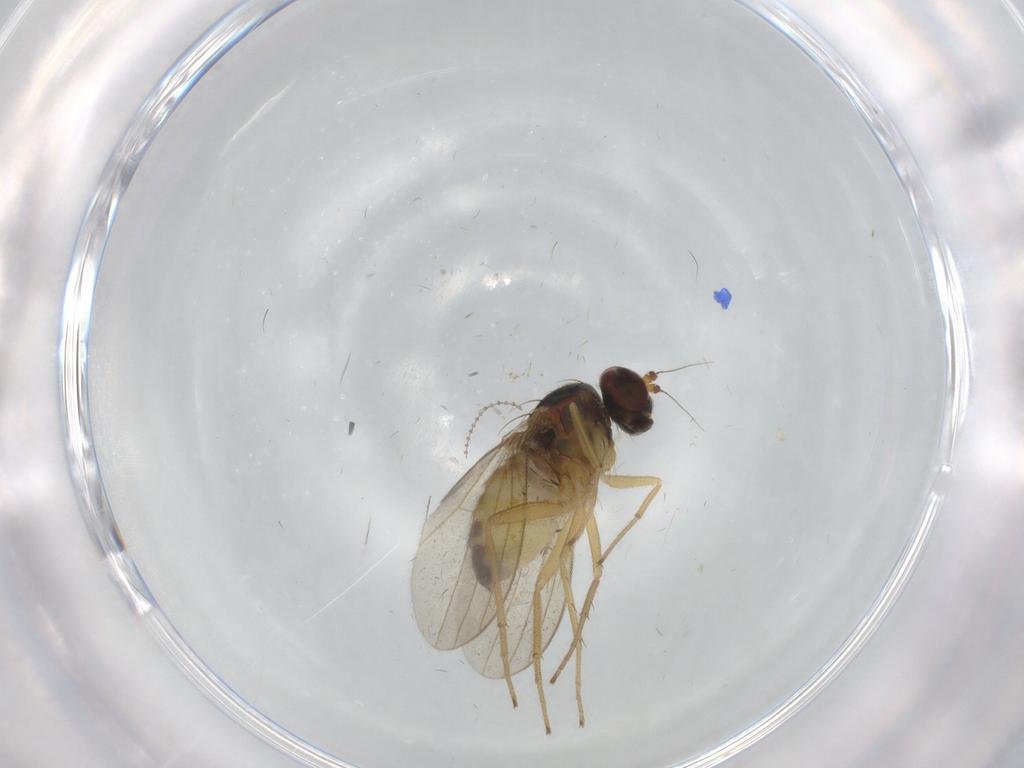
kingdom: Animalia
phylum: Arthropoda
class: Insecta
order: Diptera
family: Dolichopodidae
